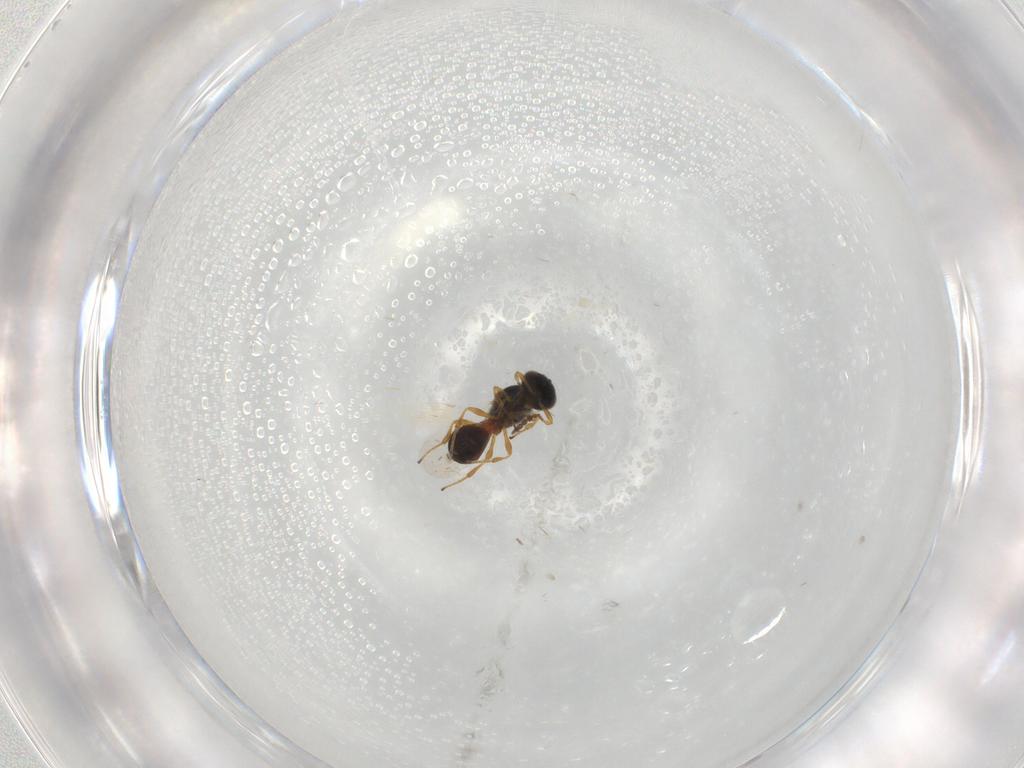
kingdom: Animalia
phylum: Arthropoda
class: Insecta
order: Hymenoptera
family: Platygastridae
